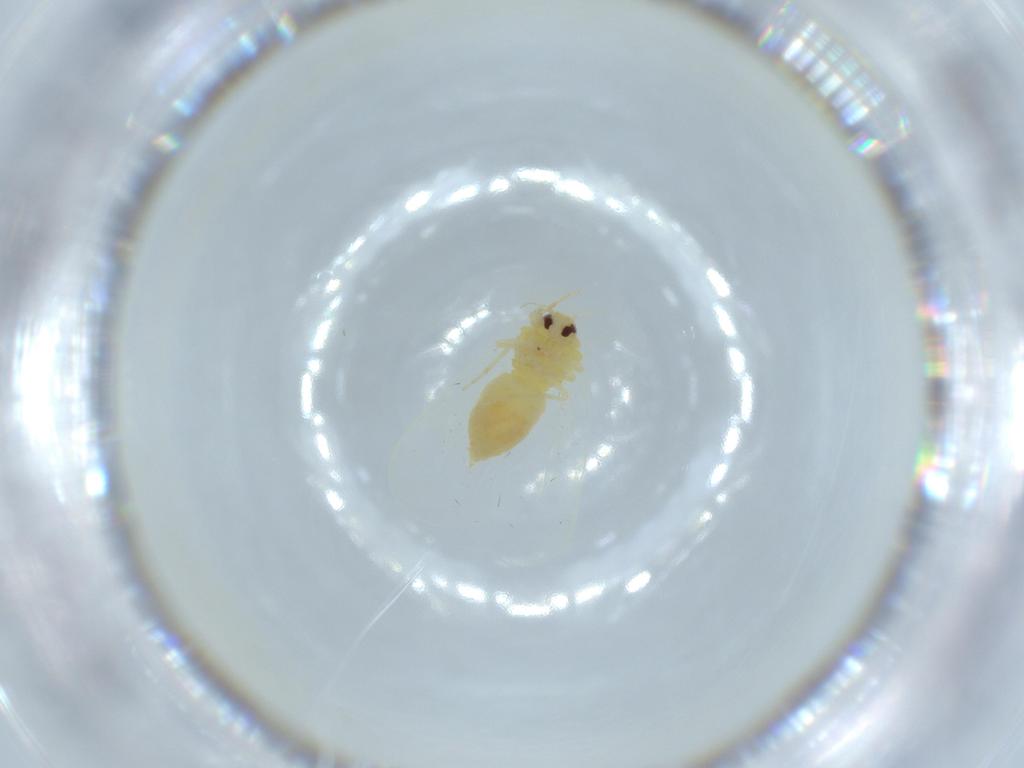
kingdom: Animalia
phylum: Arthropoda
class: Insecta
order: Hemiptera
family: Aleyrodidae
